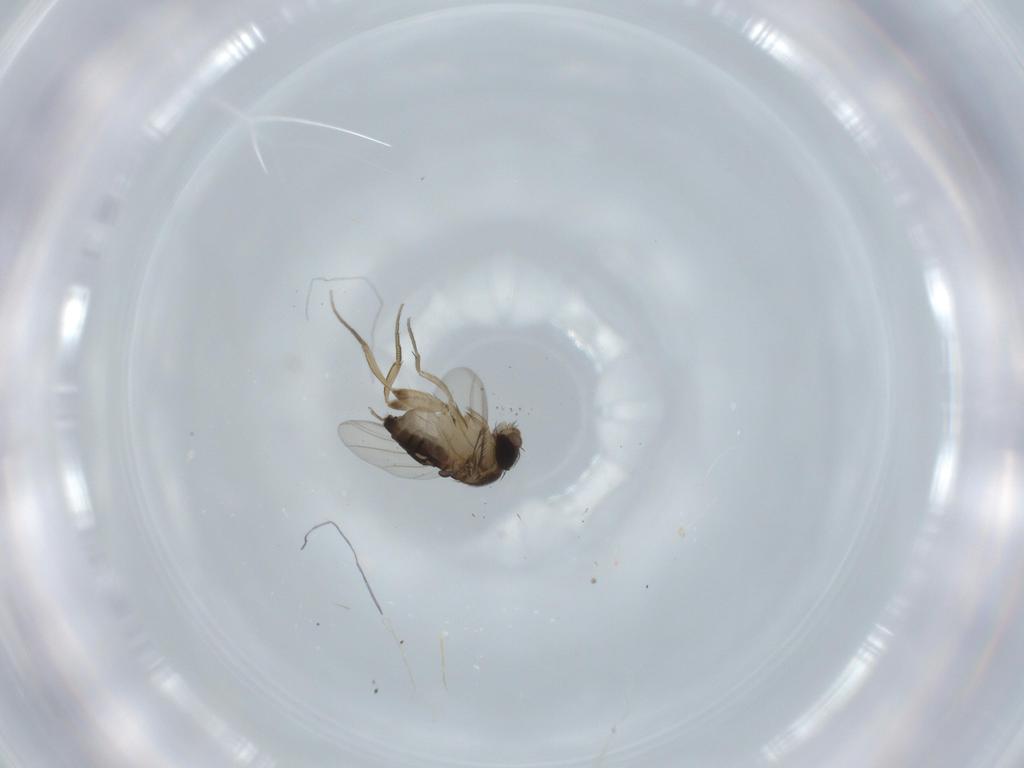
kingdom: Animalia
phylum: Arthropoda
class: Insecta
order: Diptera
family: Phoridae
